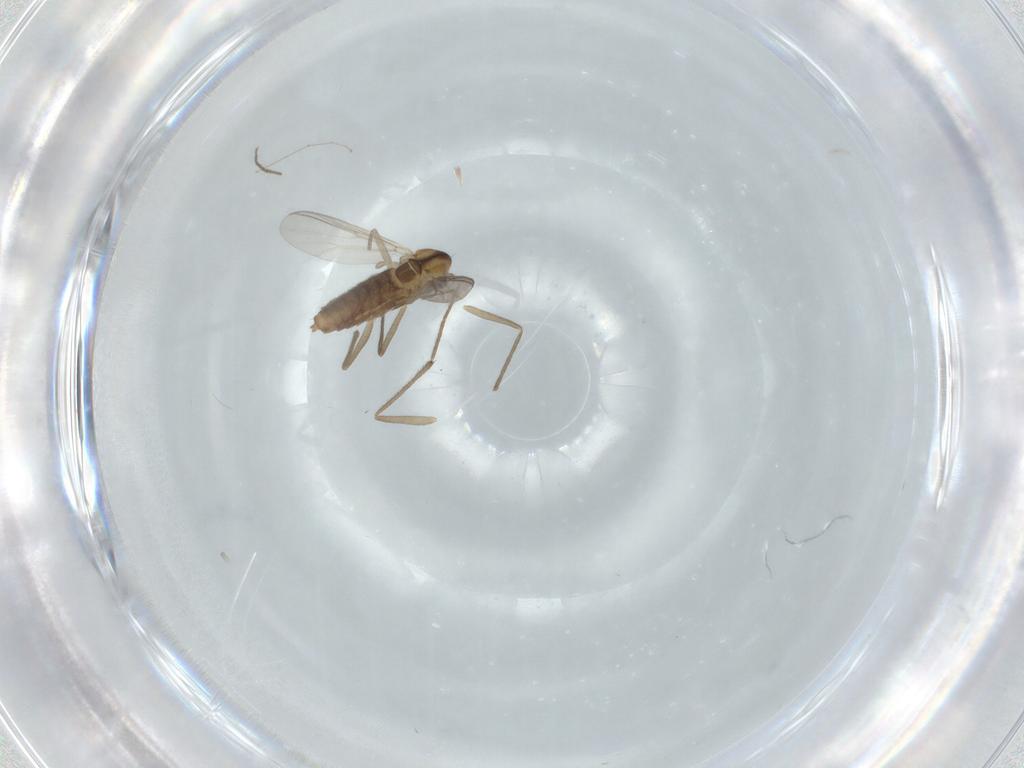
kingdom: Animalia
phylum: Arthropoda
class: Insecta
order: Diptera
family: Chironomidae
